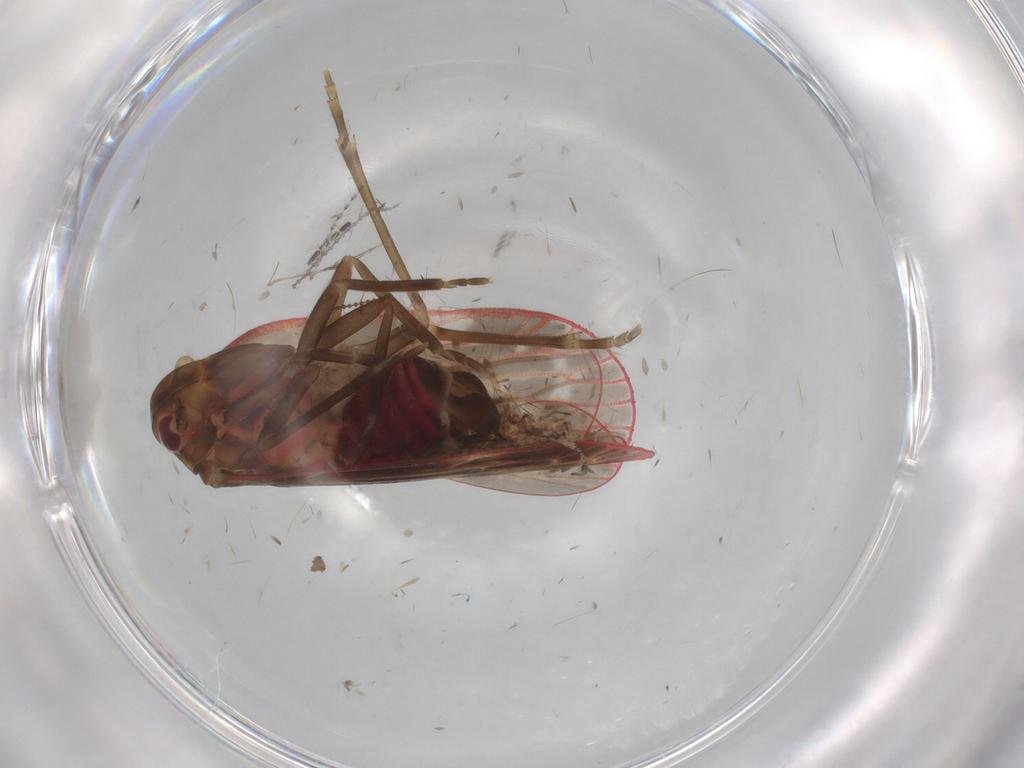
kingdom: Animalia
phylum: Arthropoda
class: Insecta
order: Hemiptera
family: Achilidae
